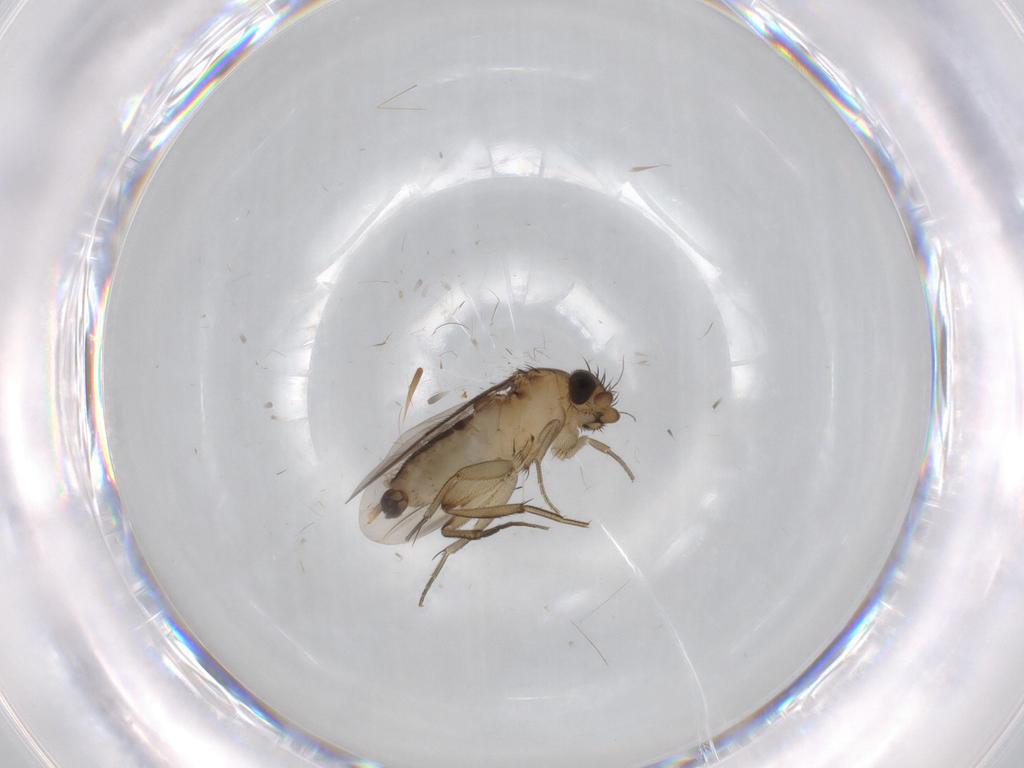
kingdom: Animalia
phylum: Arthropoda
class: Insecta
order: Diptera
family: Phoridae
